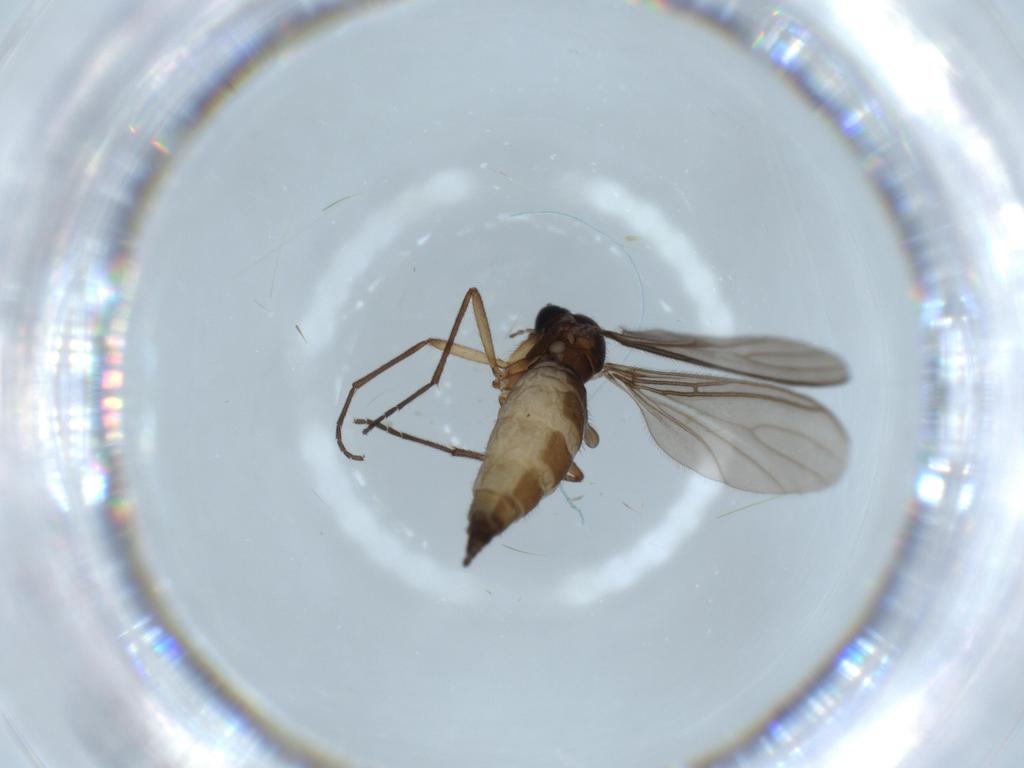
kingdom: Animalia
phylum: Arthropoda
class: Insecta
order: Diptera
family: Sciaridae
